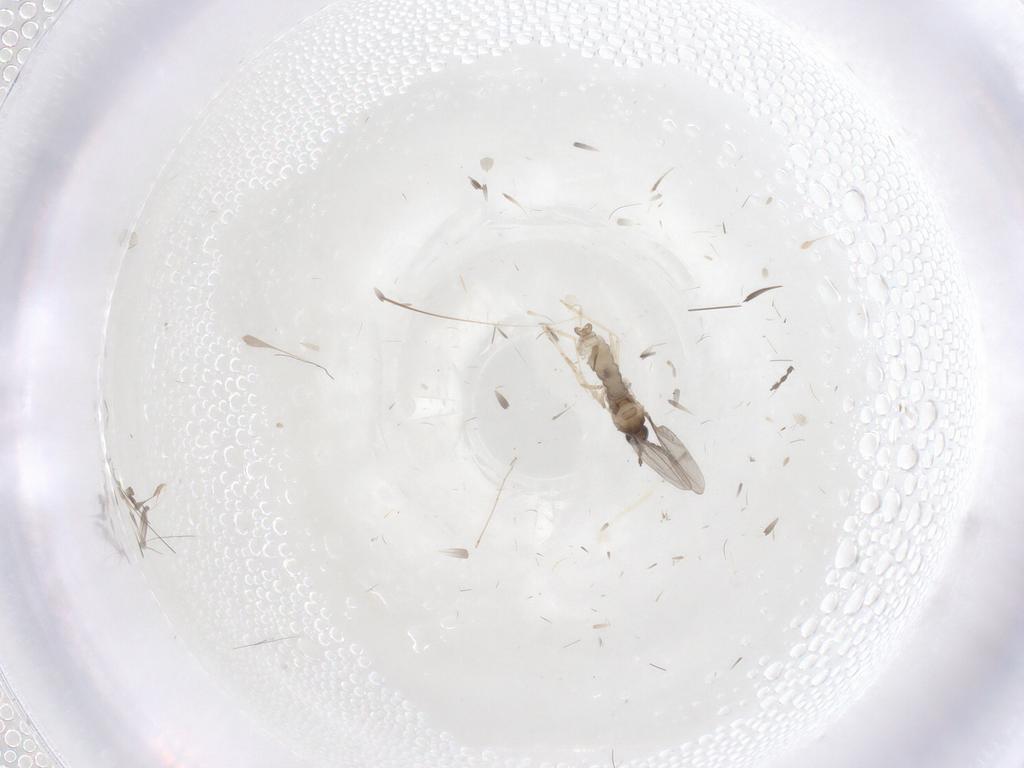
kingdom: Animalia
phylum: Arthropoda
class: Insecta
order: Diptera
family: Cecidomyiidae
